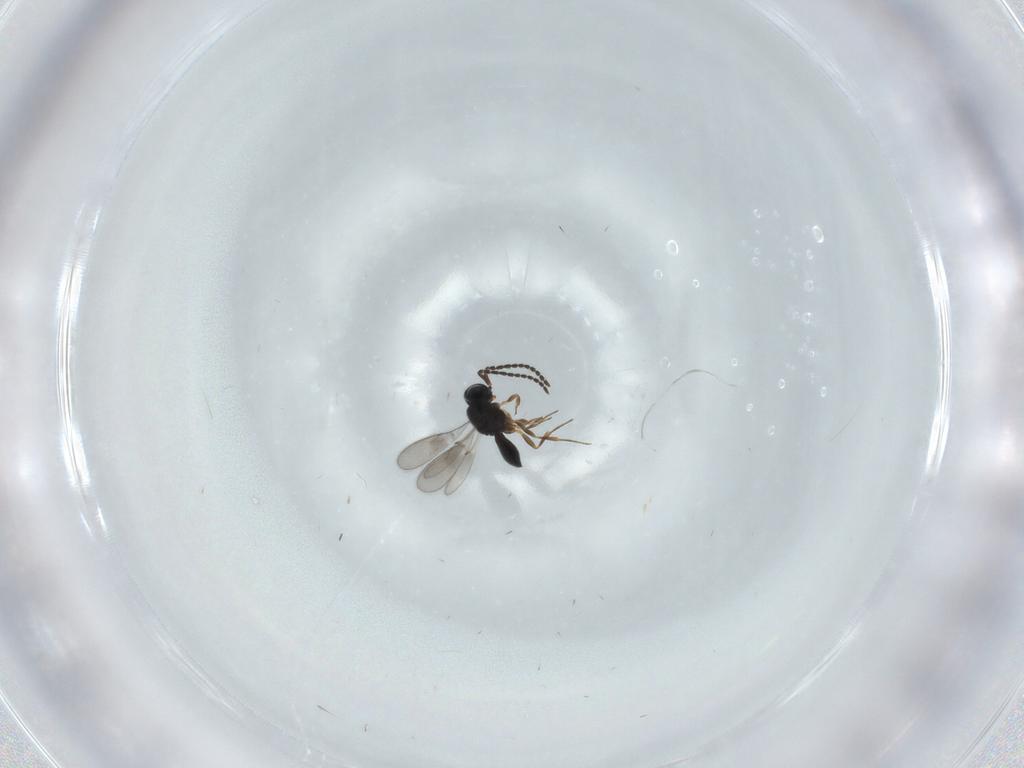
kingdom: Animalia
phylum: Arthropoda
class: Insecta
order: Hymenoptera
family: Scelionidae
